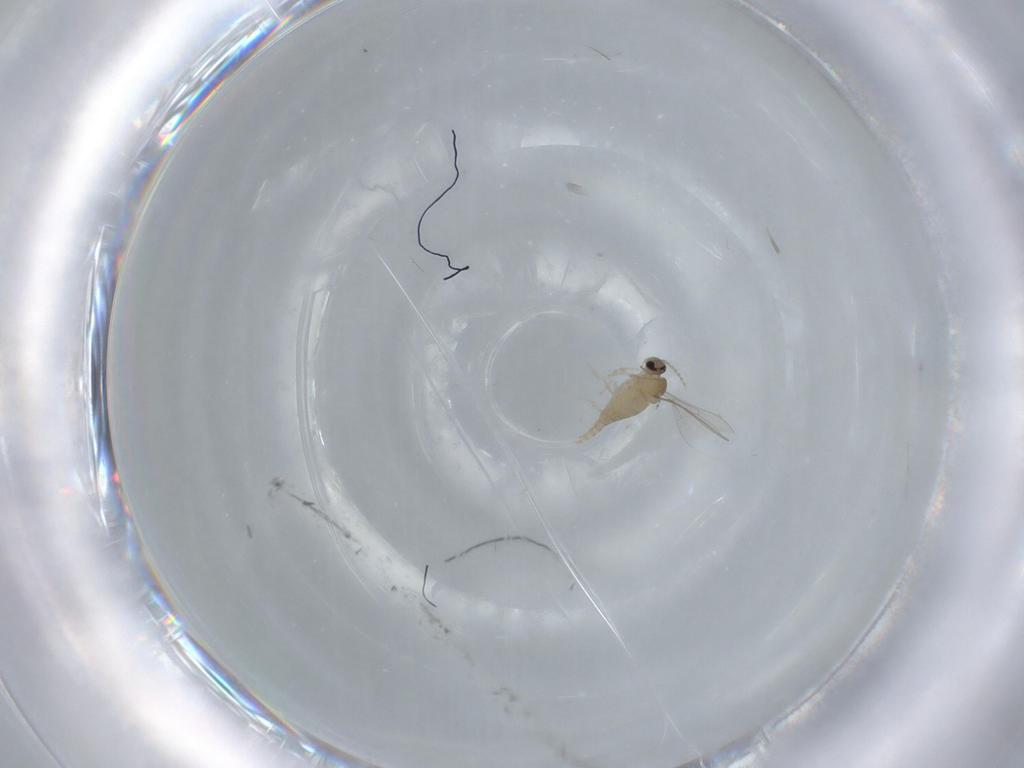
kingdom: Animalia
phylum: Arthropoda
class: Insecta
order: Diptera
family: Cecidomyiidae
